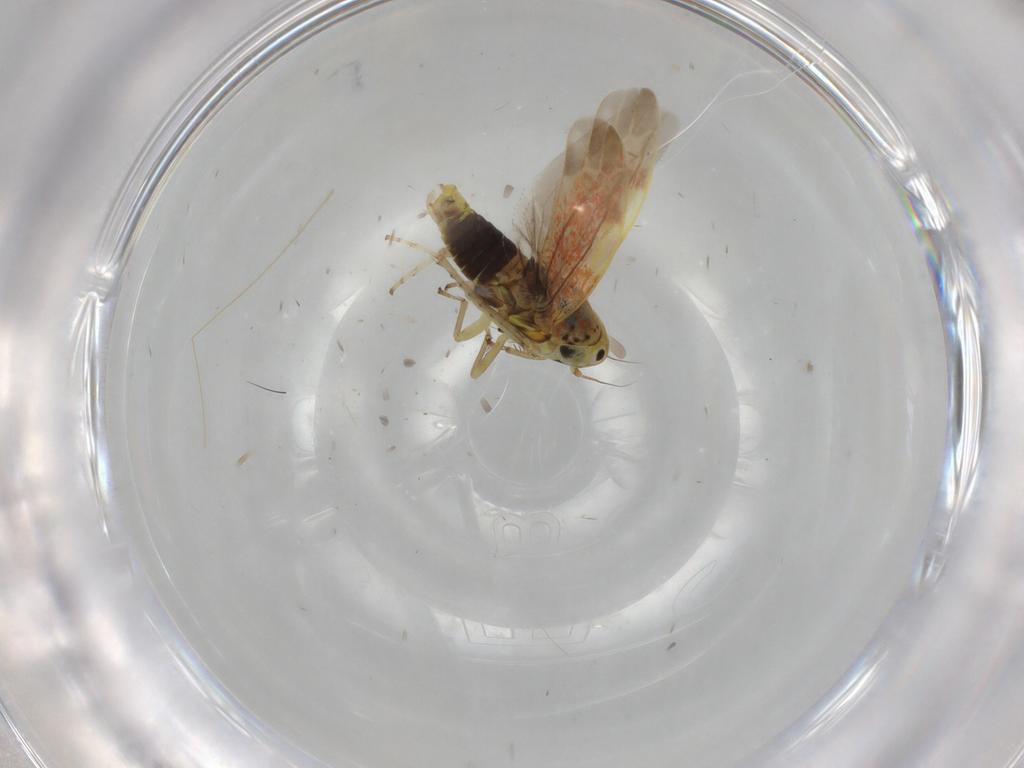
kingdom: Animalia
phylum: Arthropoda
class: Insecta
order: Hemiptera
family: Cicadellidae
